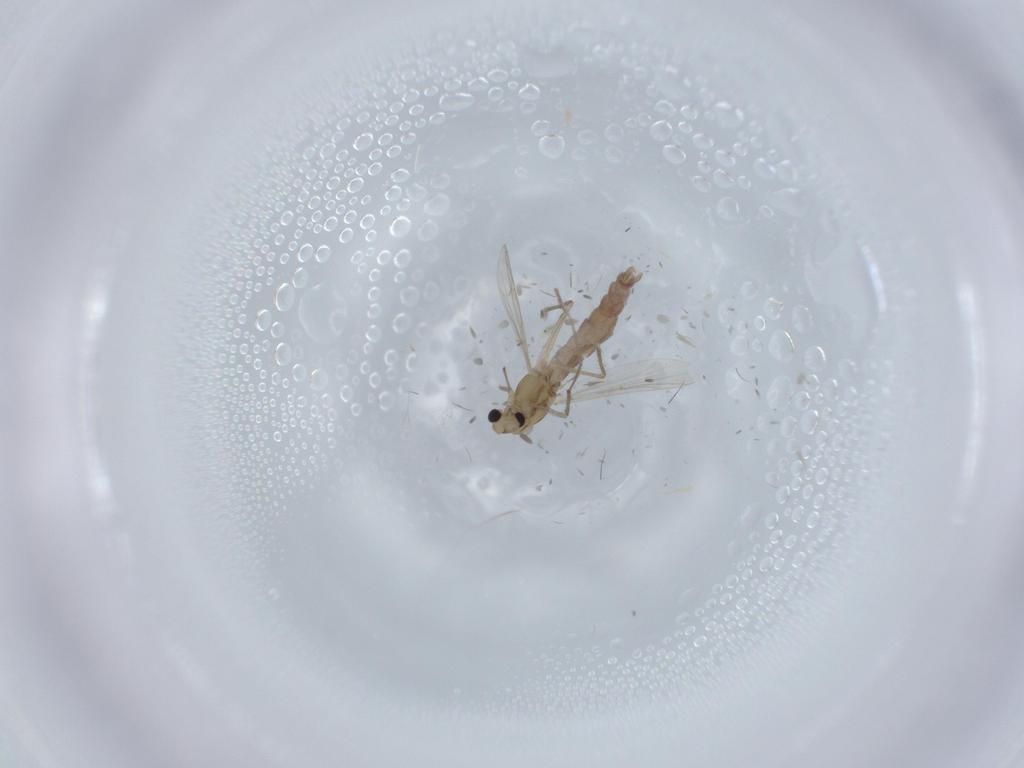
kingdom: Animalia
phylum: Arthropoda
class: Insecta
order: Diptera
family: Chironomidae
